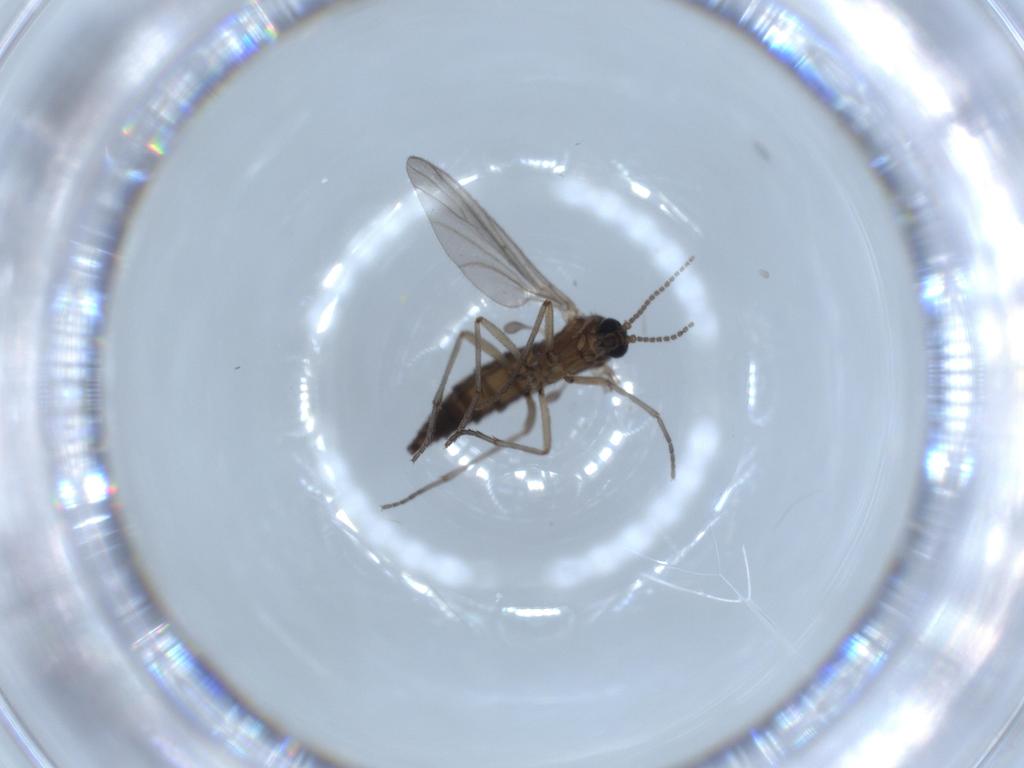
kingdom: Animalia
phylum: Arthropoda
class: Insecta
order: Diptera
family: Sciaridae
